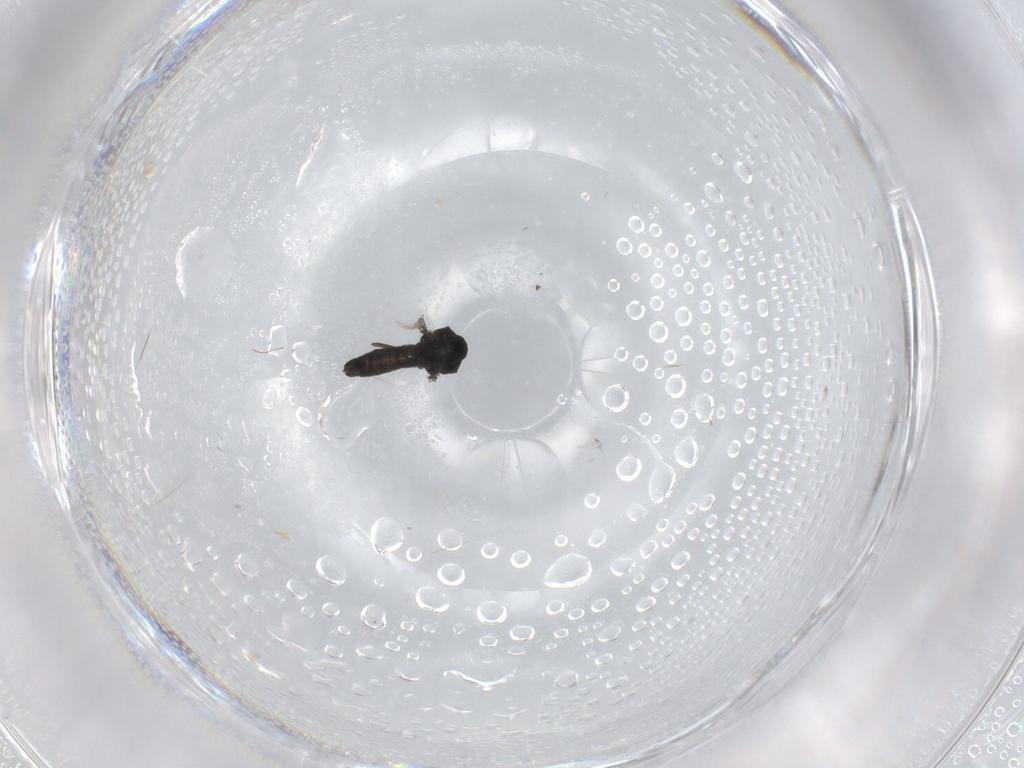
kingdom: Animalia
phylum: Arthropoda
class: Insecta
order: Diptera
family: Ceratopogonidae
